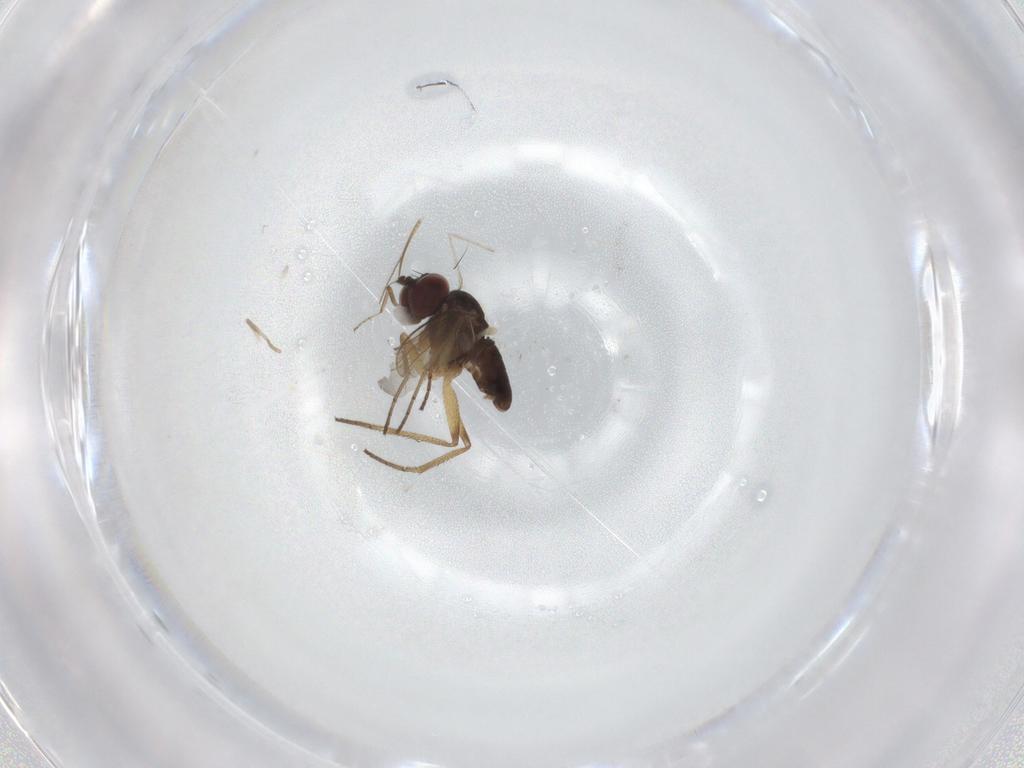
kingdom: Animalia
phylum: Arthropoda
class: Insecta
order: Diptera
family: Dolichopodidae
